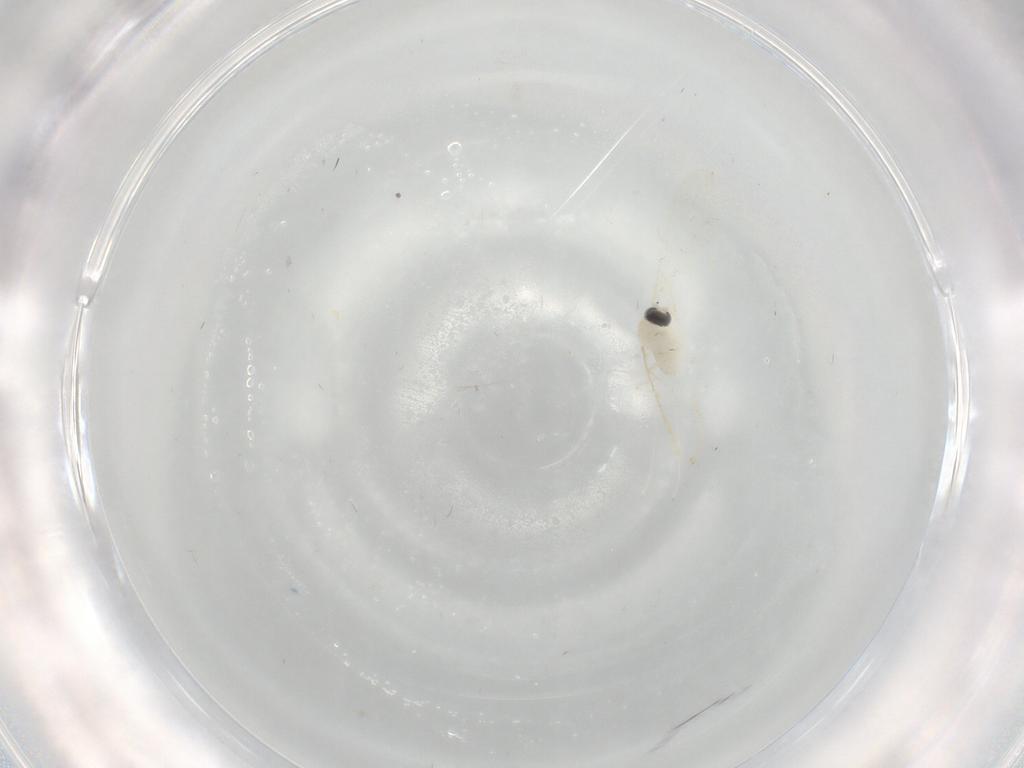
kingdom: Animalia
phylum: Arthropoda
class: Insecta
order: Diptera
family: Cecidomyiidae
